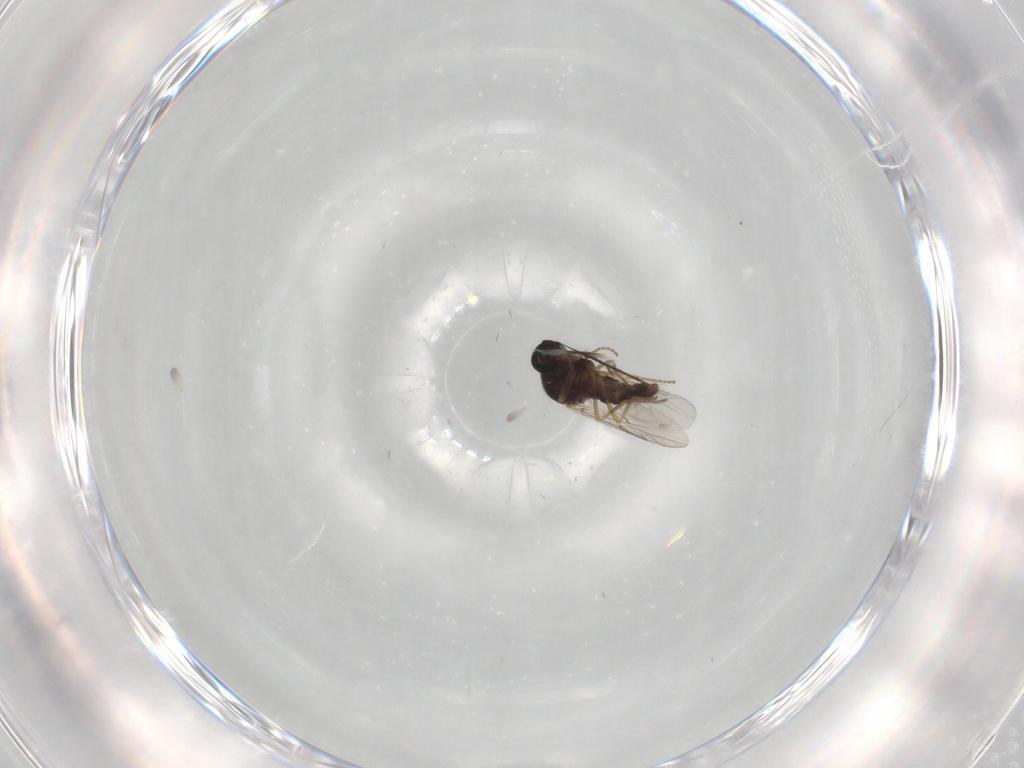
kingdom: Animalia
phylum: Arthropoda
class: Insecta
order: Diptera
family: Ceratopogonidae
